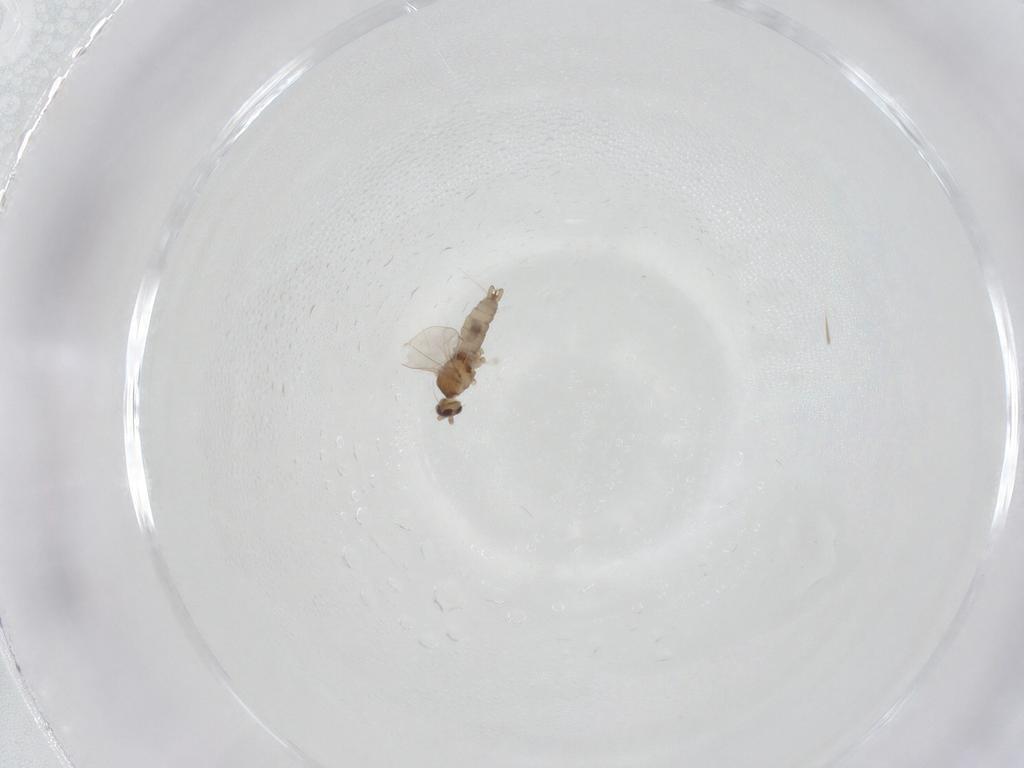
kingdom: Animalia
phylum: Arthropoda
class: Insecta
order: Diptera
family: Cecidomyiidae
